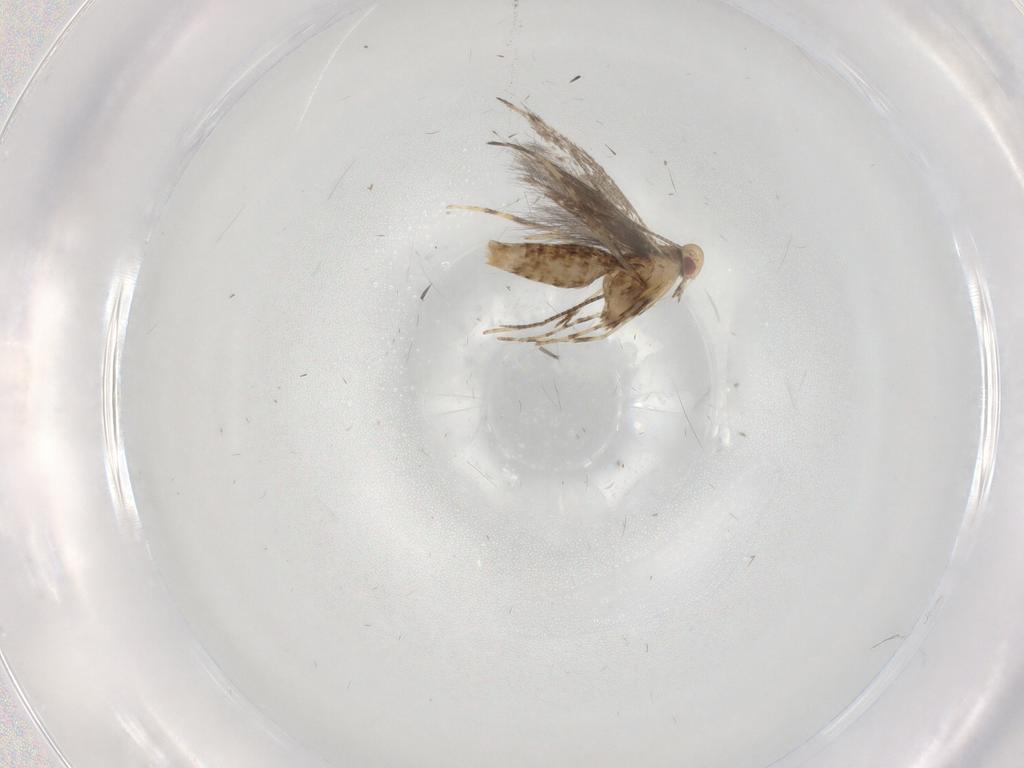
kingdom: Animalia
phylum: Arthropoda
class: Insecta
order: Lepidoptera
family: Gracillariidae
